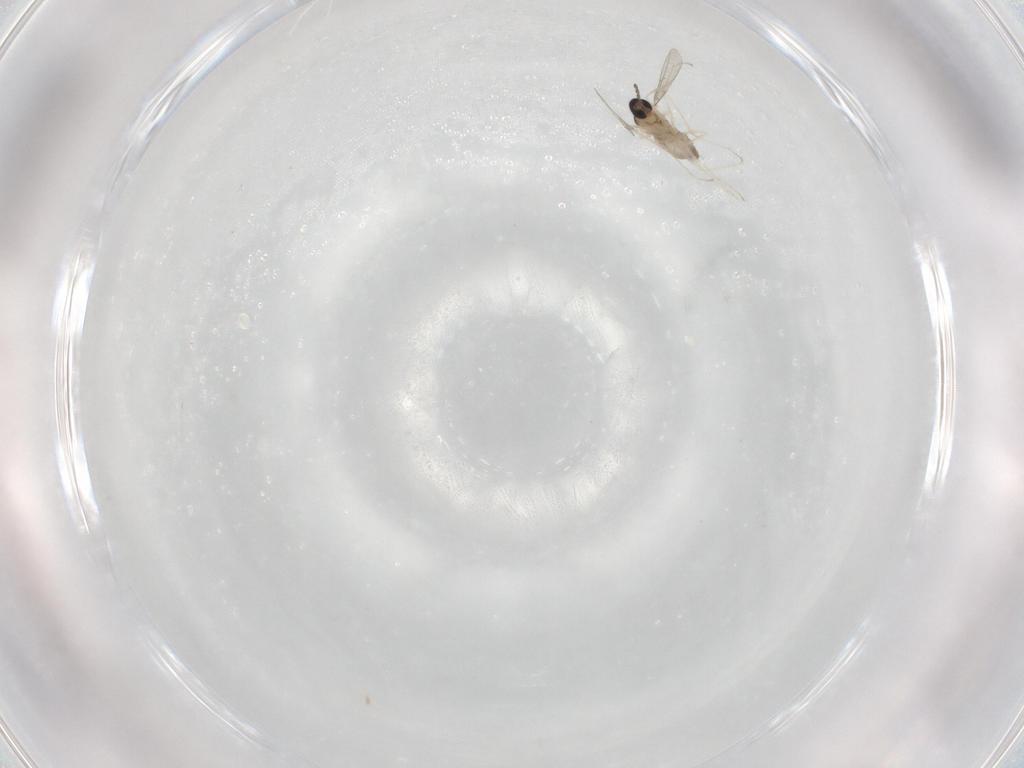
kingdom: Animalia
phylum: Arthropoda
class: Insecta
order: Diptera
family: Cecidomyiidae
